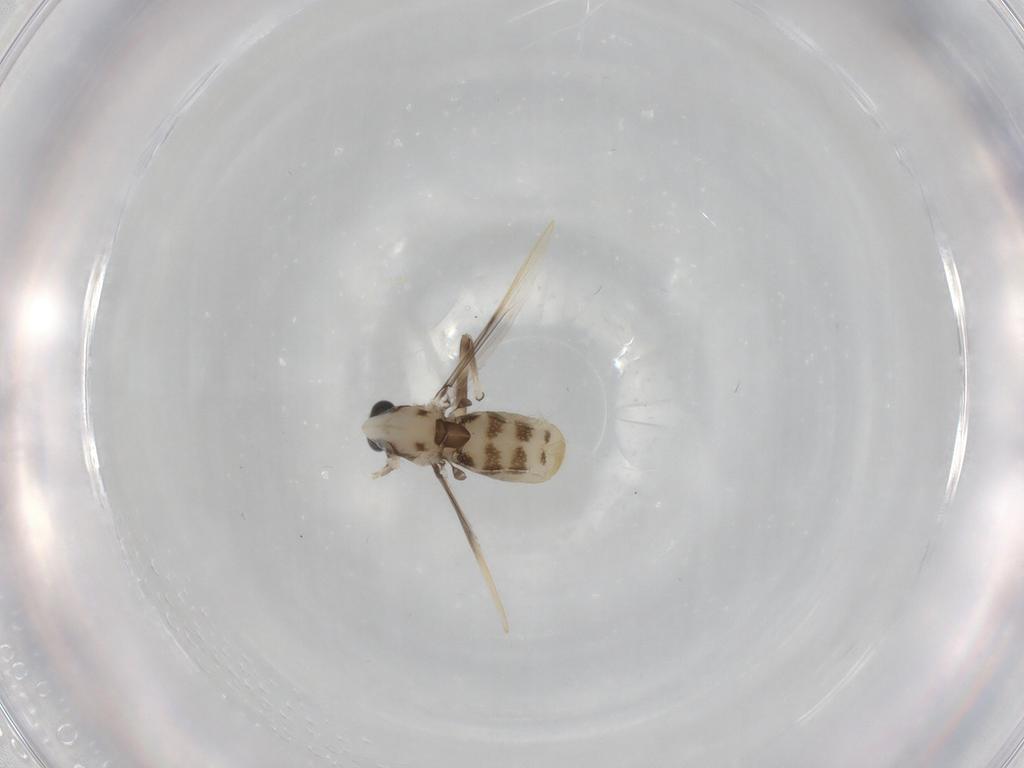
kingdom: Animalia
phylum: Arthropoda
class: Insecta
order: Diptera
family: Chironomidae
